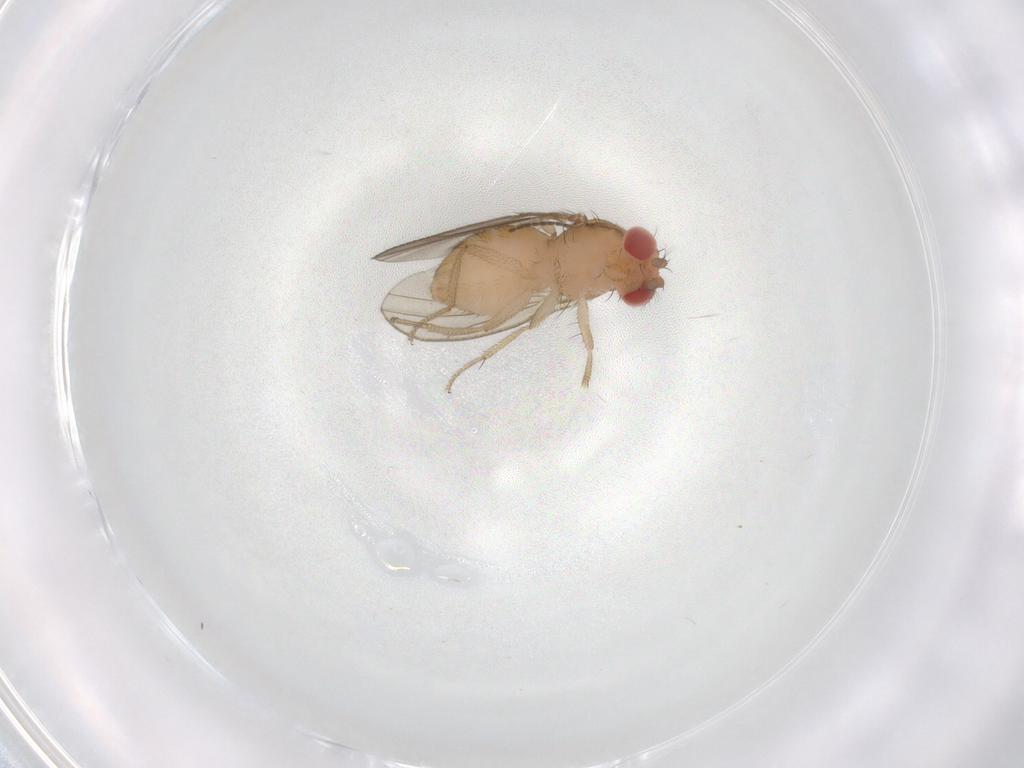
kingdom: Animalia
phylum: Arthropoda
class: Insecta
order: Diptera
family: Drosophilidae
